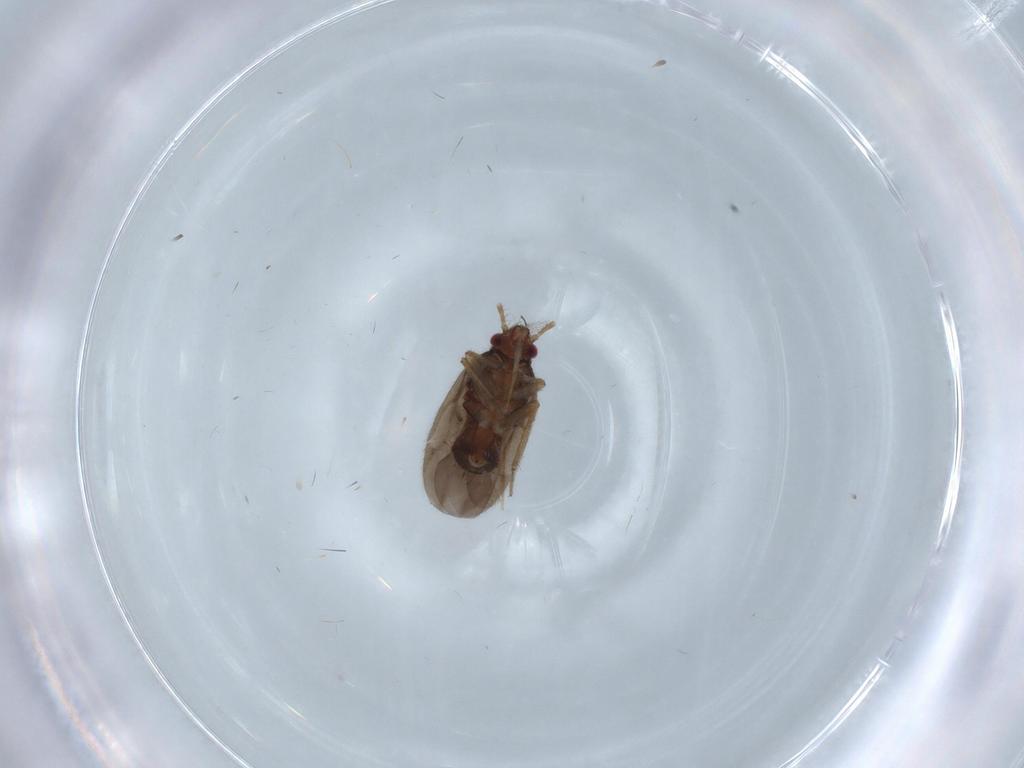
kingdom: Animalia
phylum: Arthropoda
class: Insecta
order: Hemiptera
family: Ceratocombidae
